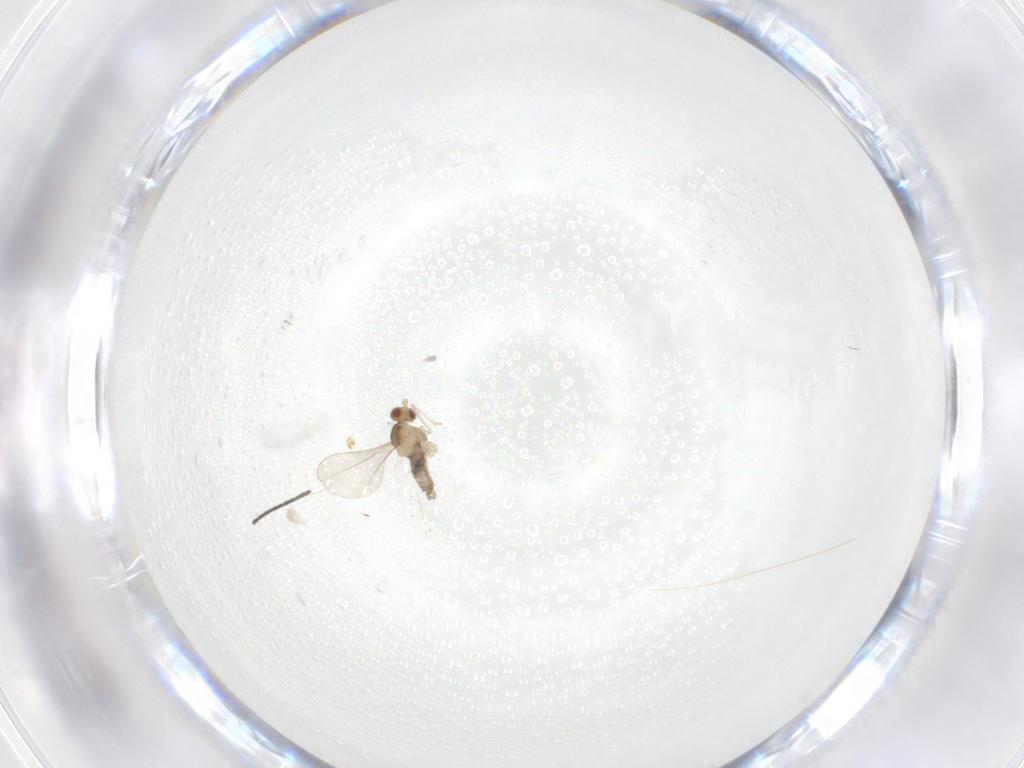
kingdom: Animalia
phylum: Arthropoda
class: Insecta
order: Diptera
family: Cecidomyiidae
